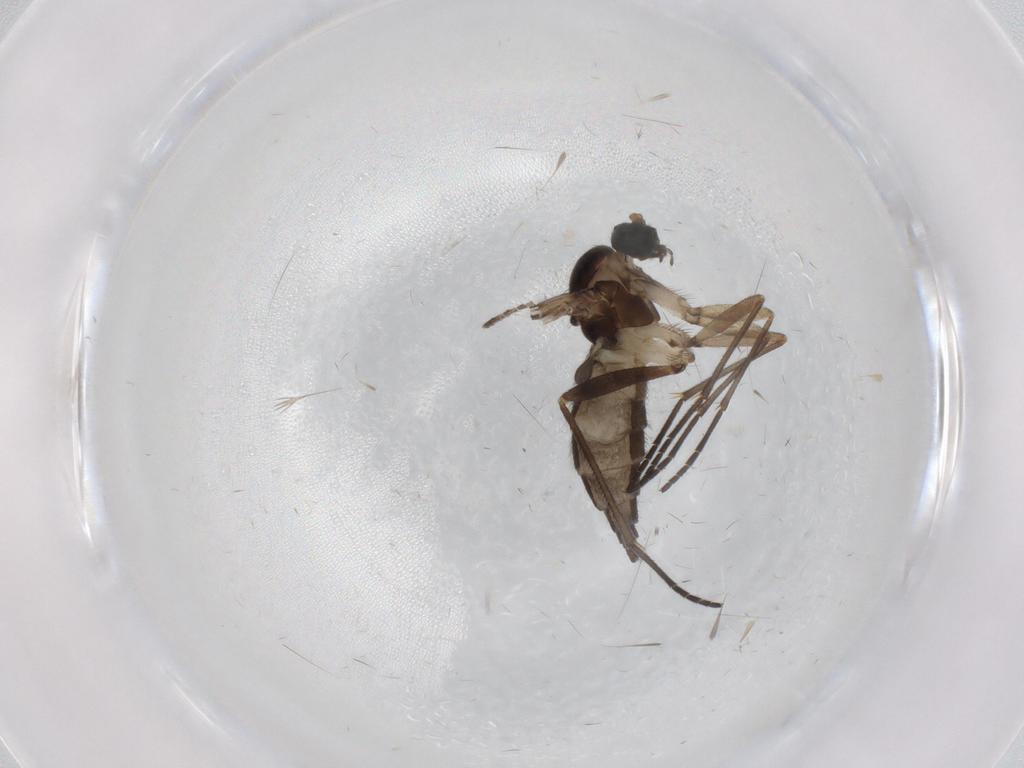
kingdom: Animalia
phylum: Arthropoda
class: Insecta
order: Diptera
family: Sciaridae
